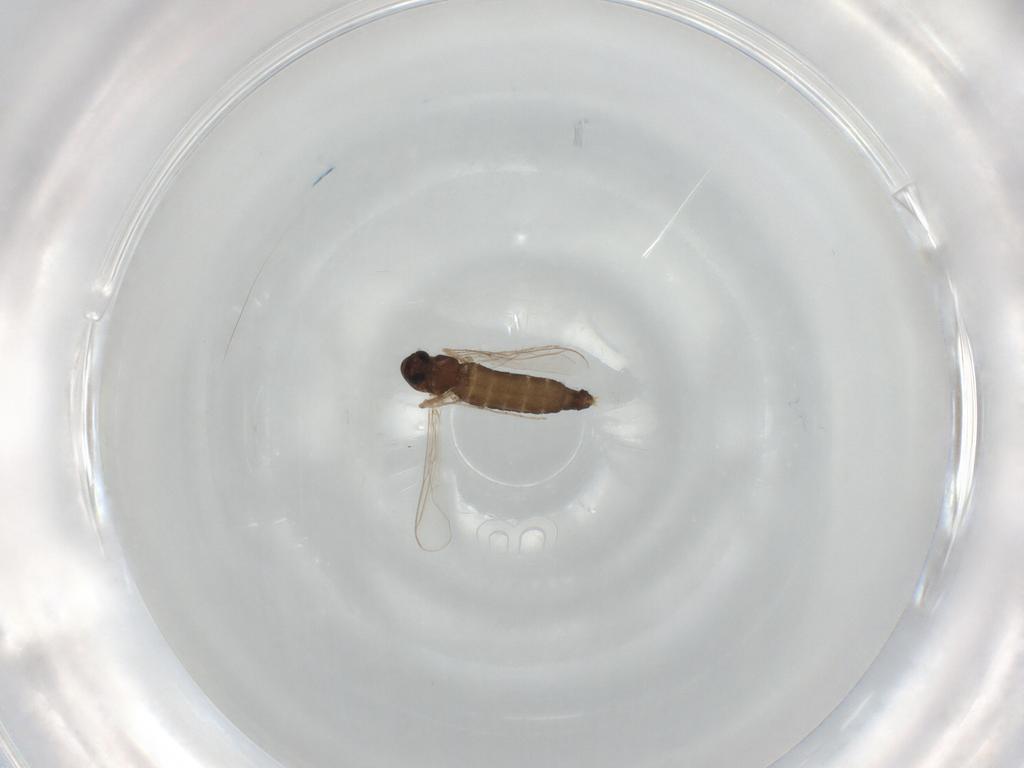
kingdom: Animalia
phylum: Arthropoda
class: Insecta
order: Diptera
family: Chironomidae
